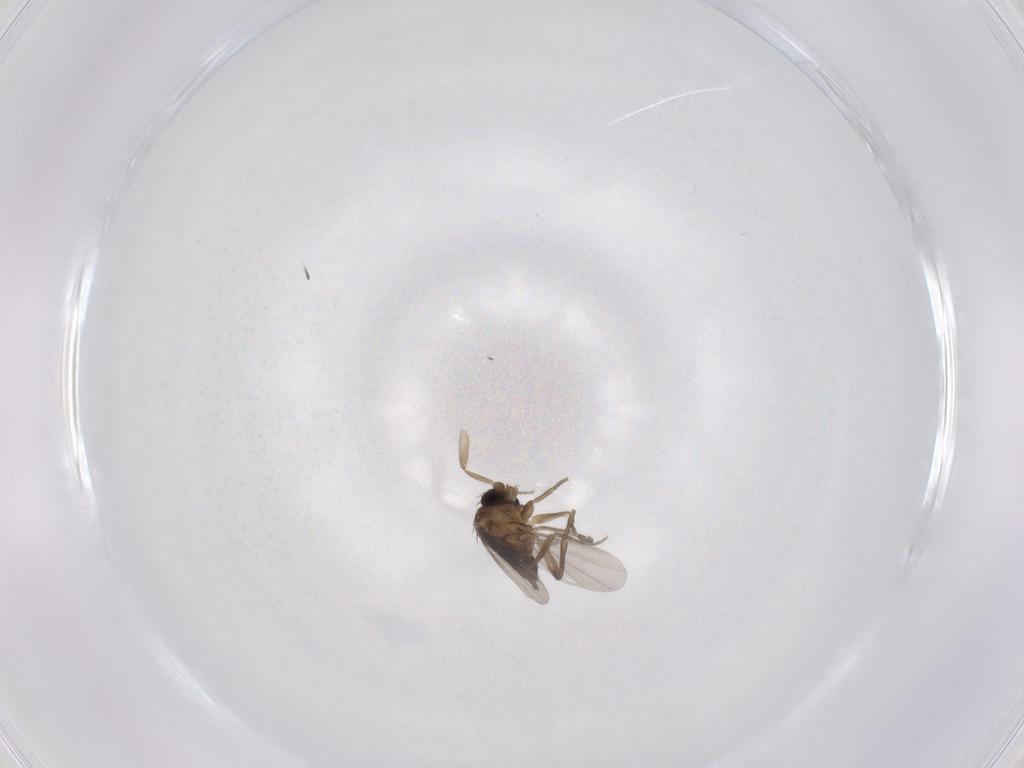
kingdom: Animalia
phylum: Arthropoda
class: Insecta
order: Diptera
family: Phoridae
